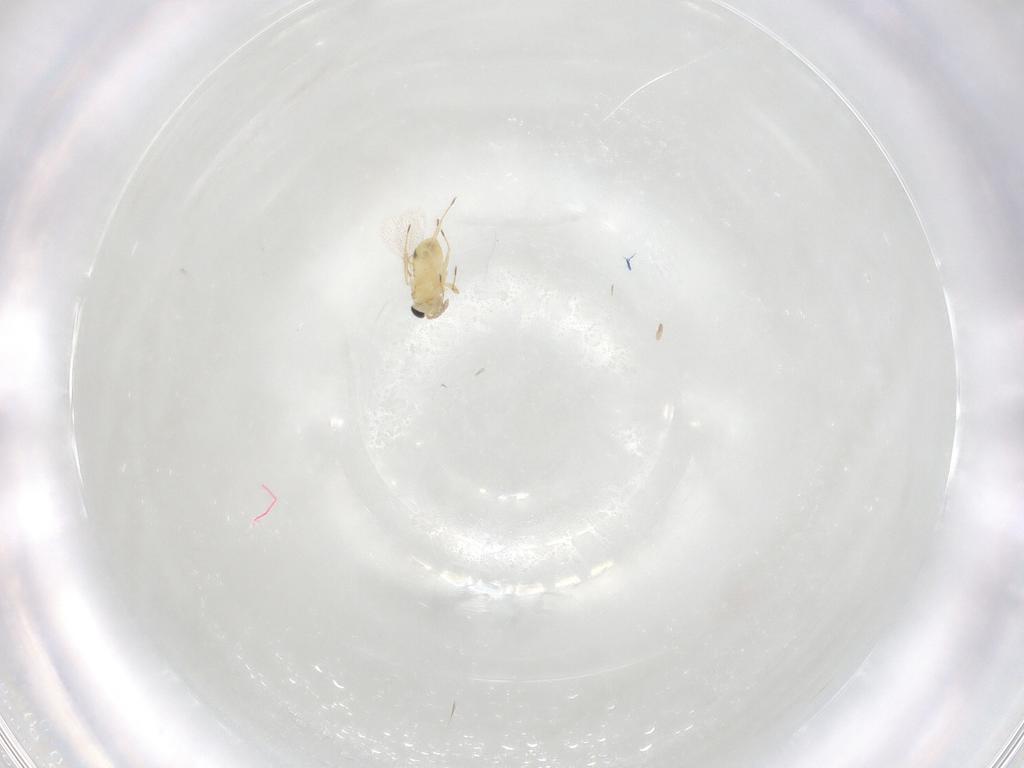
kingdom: Animalia
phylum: Arthropoda
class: Insecta
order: Hymenoptera
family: Trichogrammatidae
